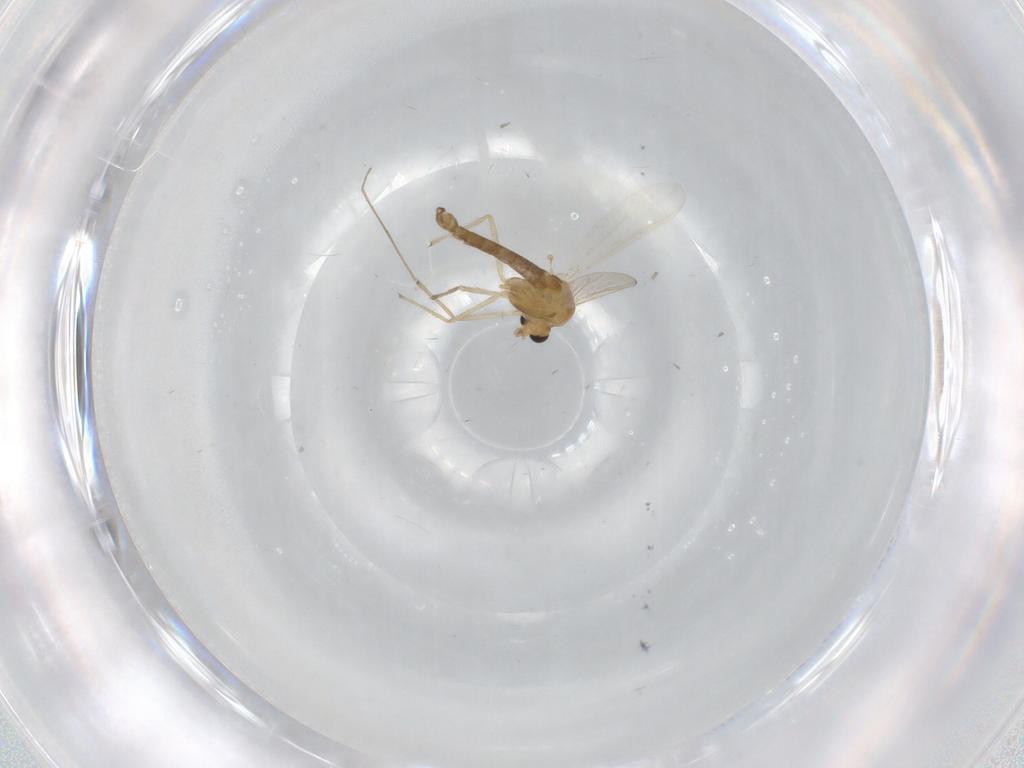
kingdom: Animalia
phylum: Arthropoda
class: Insecta
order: Diptera
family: Chironomidae
